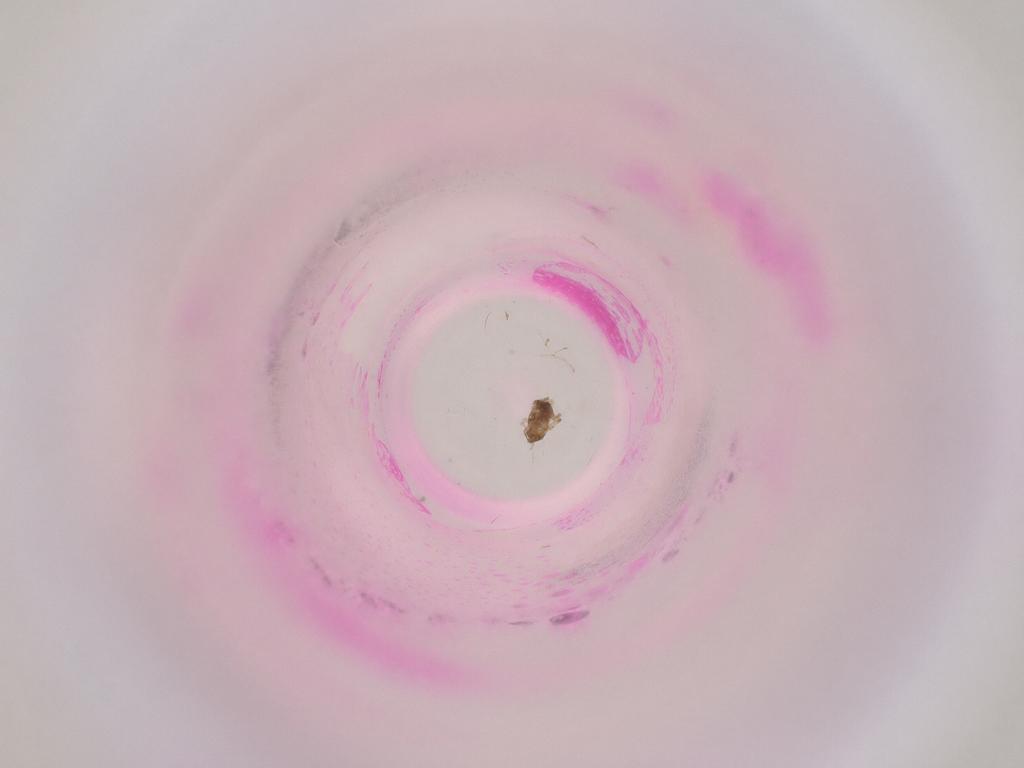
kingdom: Animalia
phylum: Arthropoda
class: Insecta
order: Diptera
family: Cecidomyiidae
